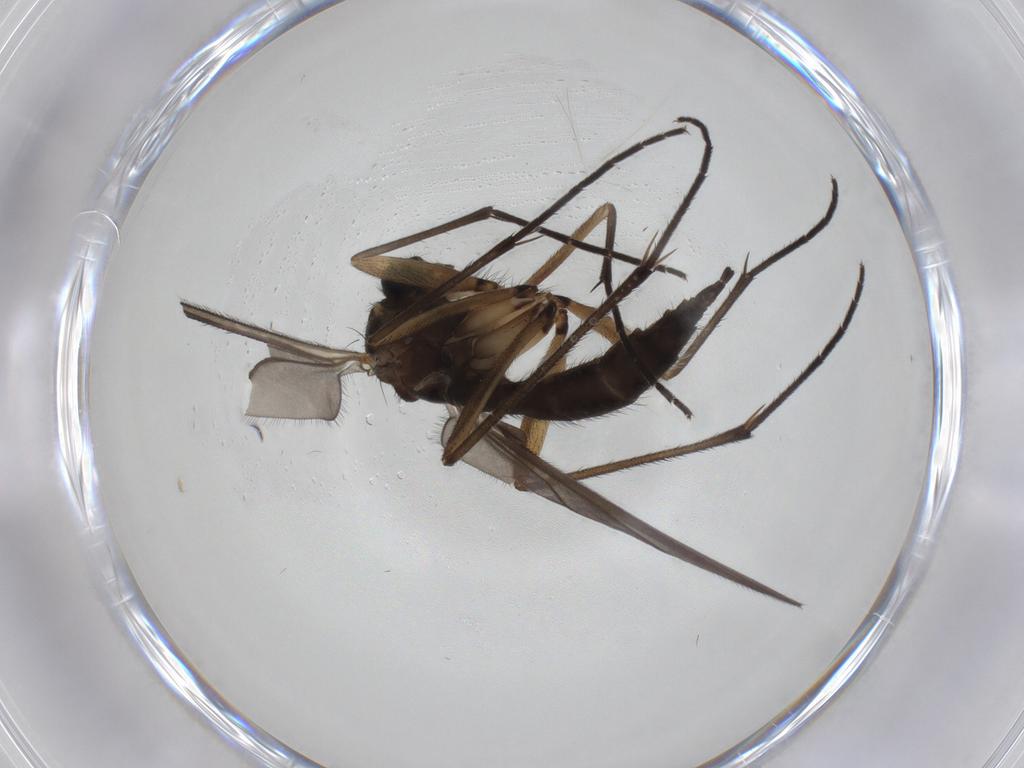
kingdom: Animalia
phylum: Arthropoda
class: Insecta
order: Diptera
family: Sciaridae
